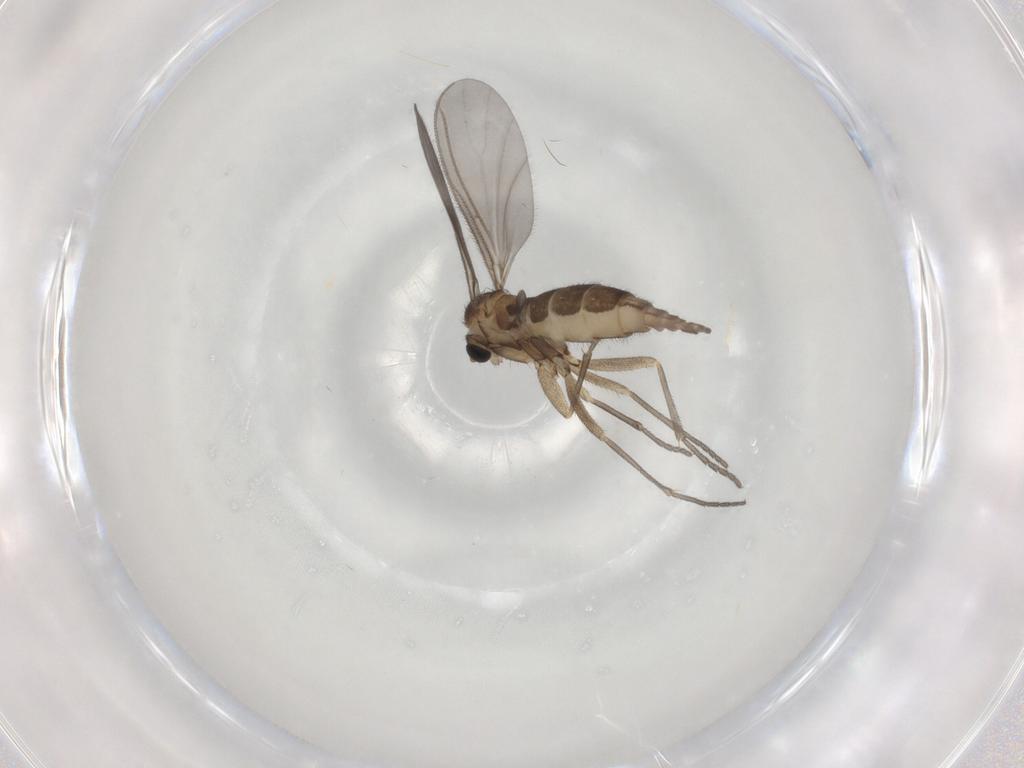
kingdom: Animalia
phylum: Arthropoda
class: Insecta
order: Diptera
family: Sciaridae
